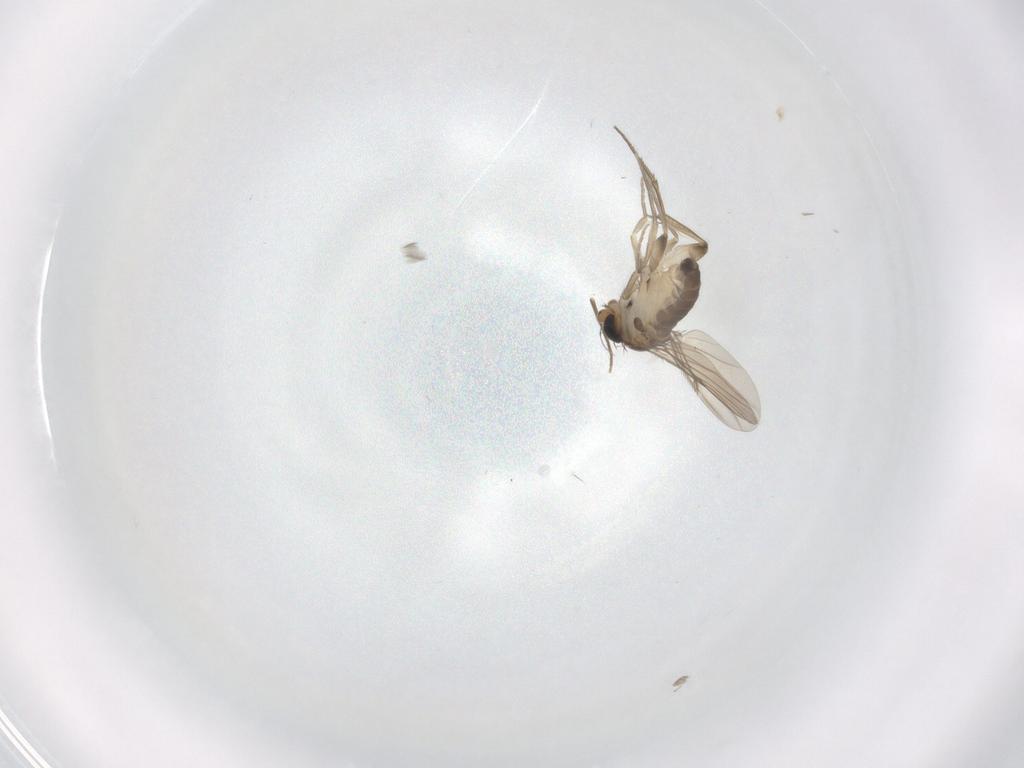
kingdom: Animalia
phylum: Arthropoda
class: Insecta
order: Diptera
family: Phoridae
